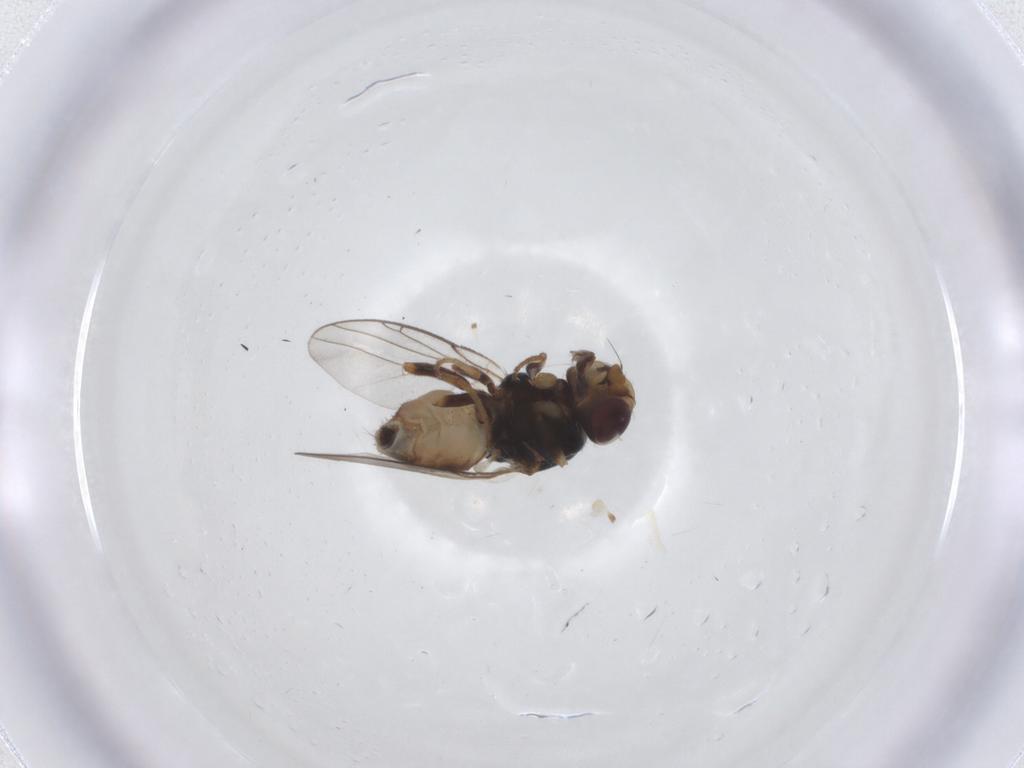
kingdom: Animalia
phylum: Arthropoda
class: Insecta
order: Diptera
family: Chloropidae
